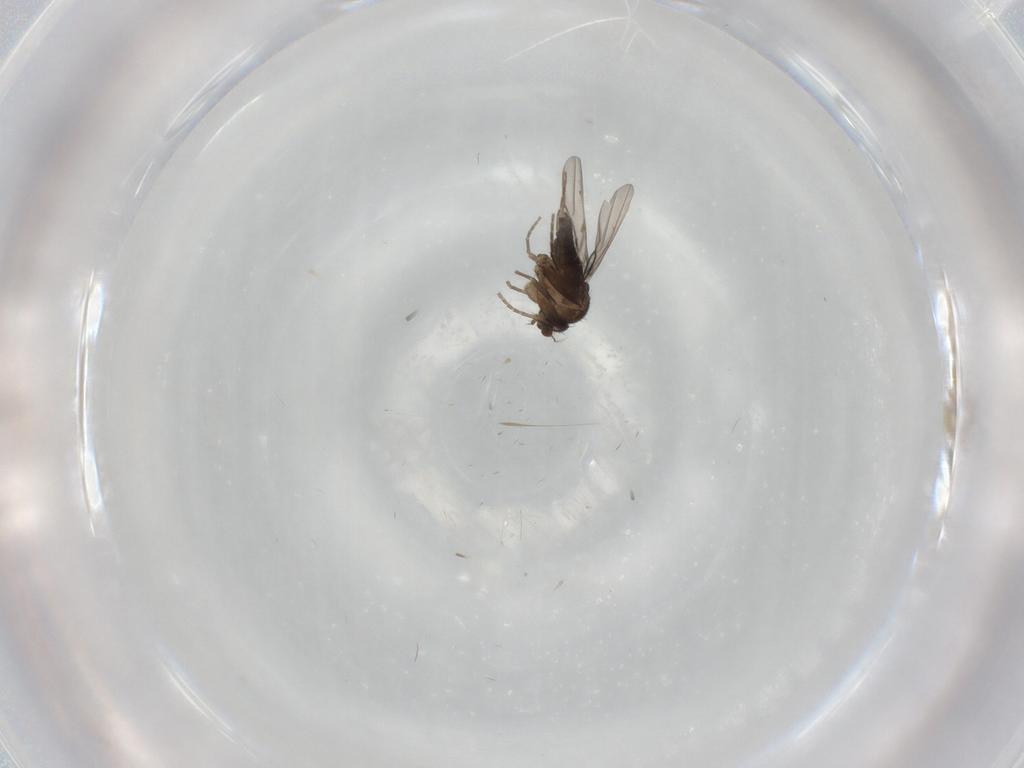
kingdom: Animalia
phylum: Arthropoda
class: Insecta
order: Diptera
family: Phoridae
